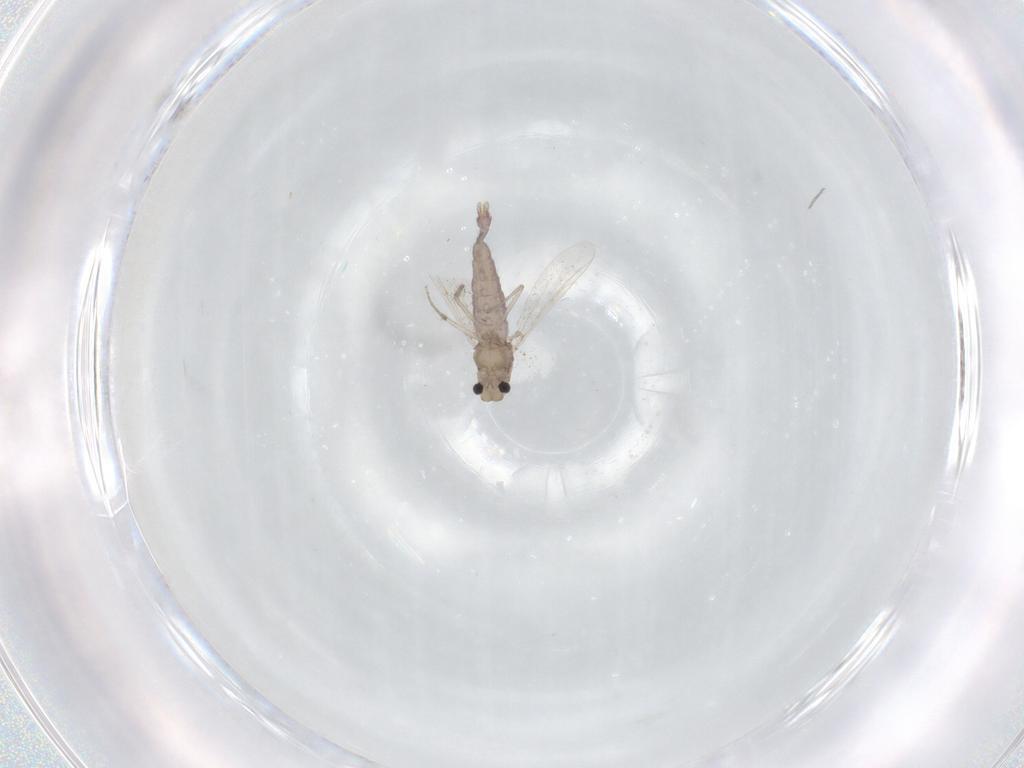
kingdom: Animalia
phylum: Arthropoda
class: Insecta
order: Diptera
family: Chironomidae
